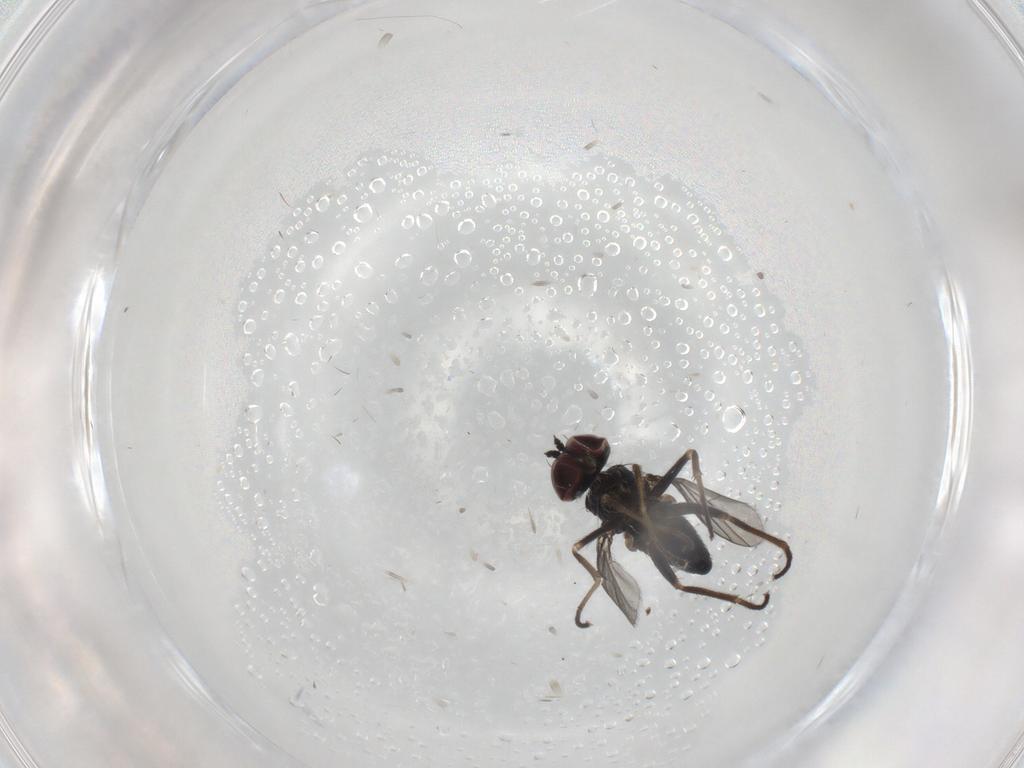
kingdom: Animalia
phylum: Arthropoda
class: Insecta
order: Diptera
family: Dolichopodidae
